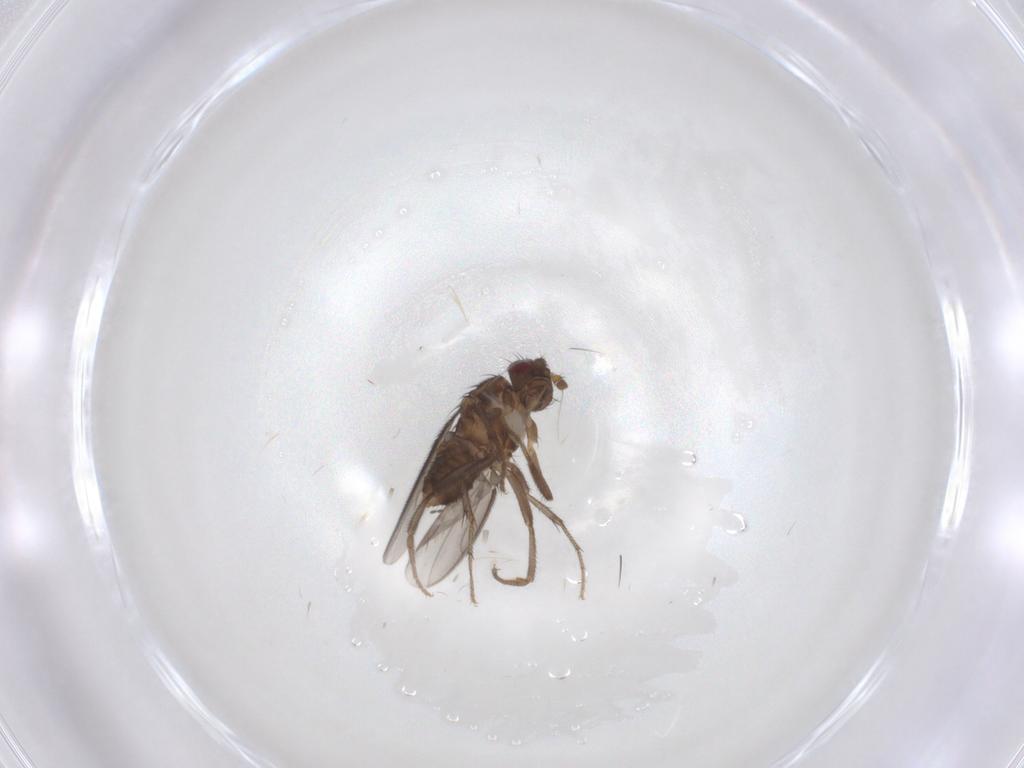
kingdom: Animalia
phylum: Arthropoda
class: Insecta
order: Diptera
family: Sphaeroceridae
